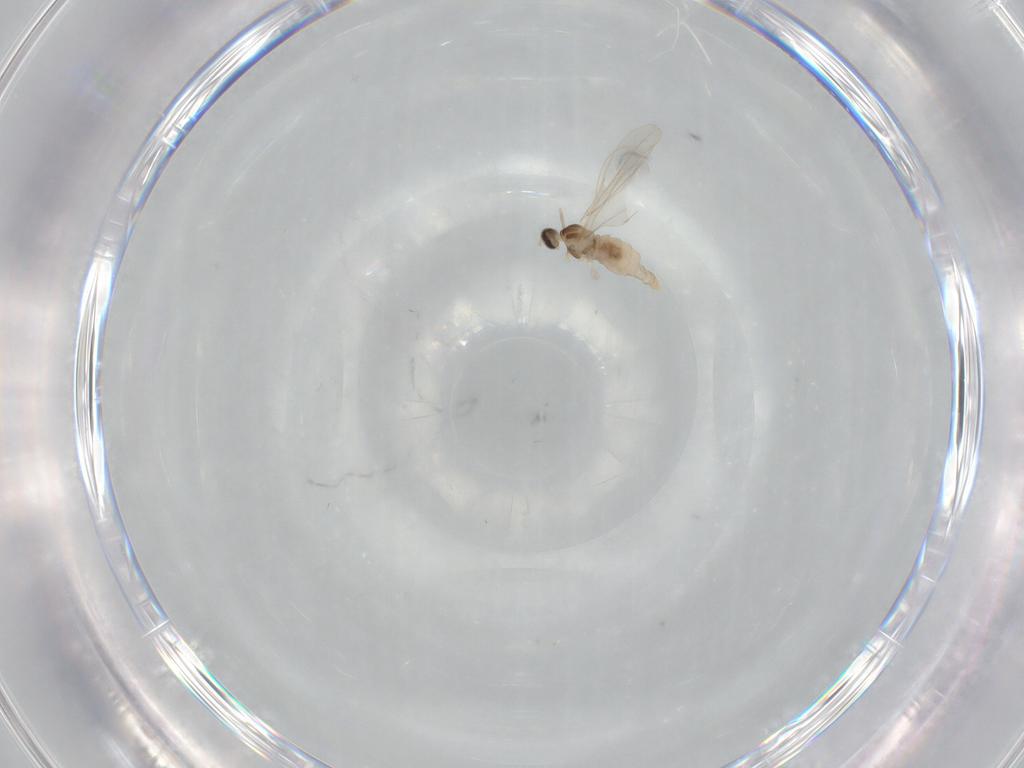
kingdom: Animalia
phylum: Arthropoda
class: Insecta
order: Diptera
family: Cecidomyiidae
